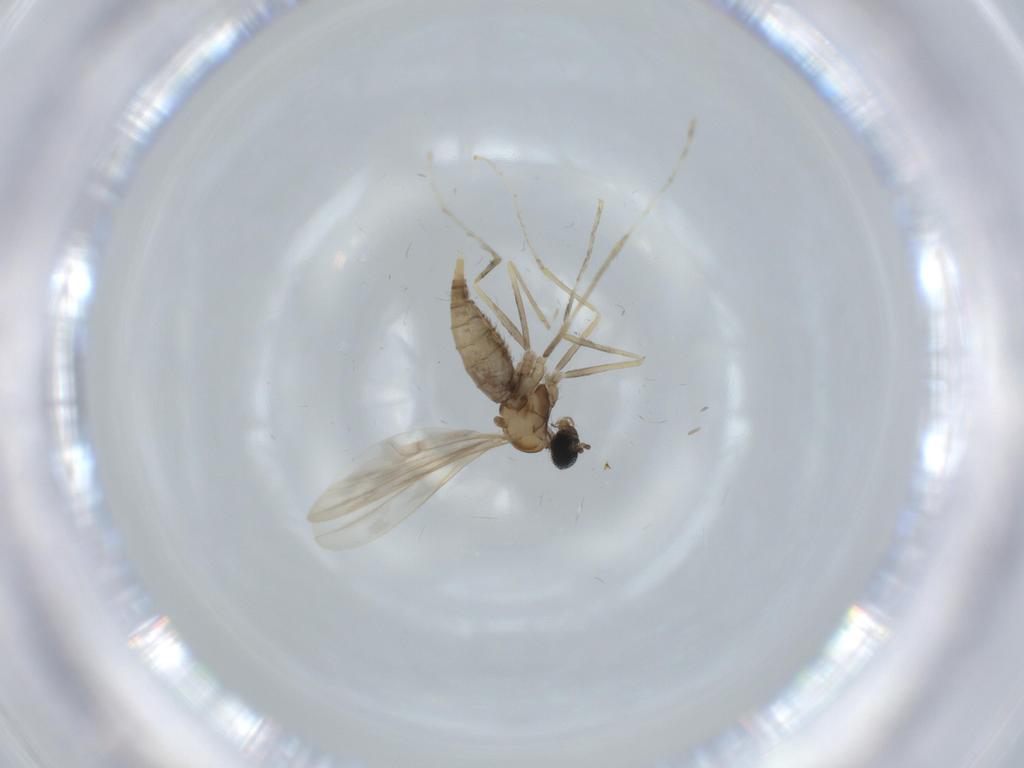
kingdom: Animalia
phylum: Arthropoda
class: Insecta
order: Diptera
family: Cecidomyiidae
